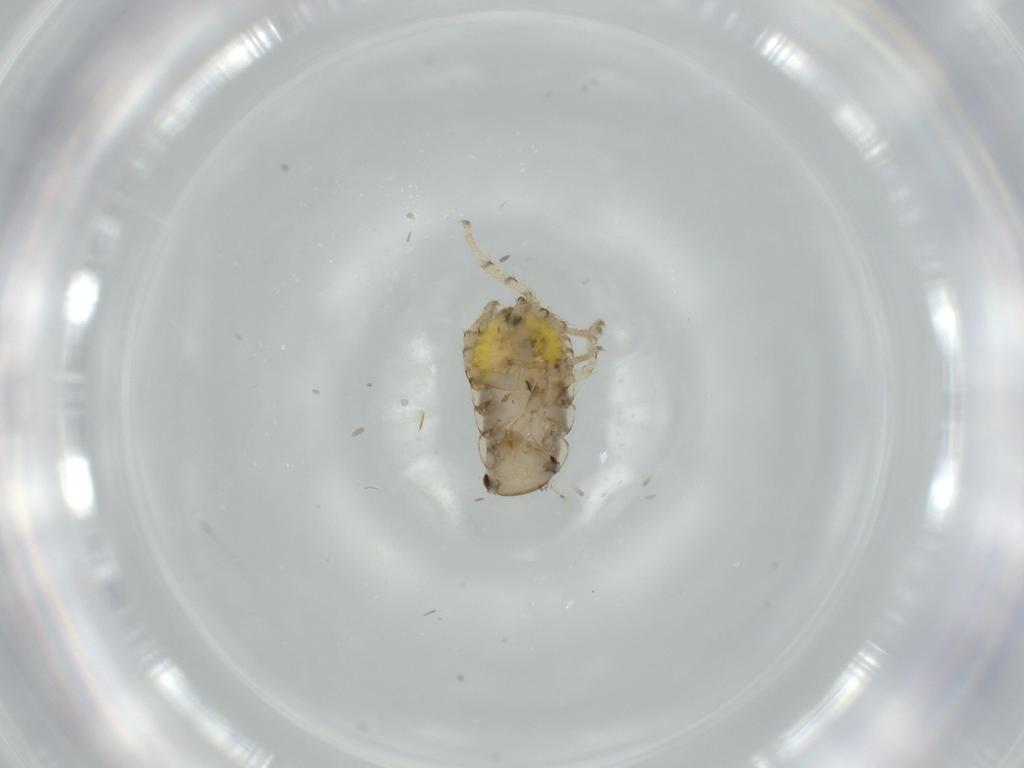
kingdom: Animalia
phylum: Arthropoda
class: Insecta
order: Blattodea
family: Ectobiidae
